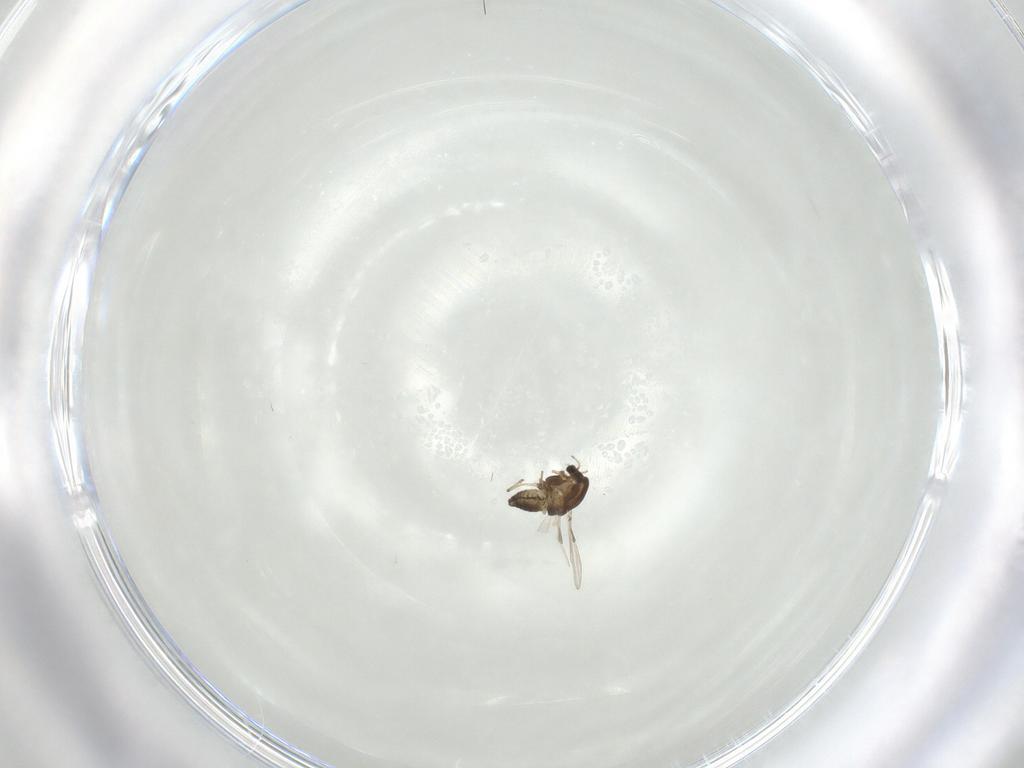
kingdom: Animalia
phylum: Arthropoda
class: Insecta
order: Diptera
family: Chironomidae
